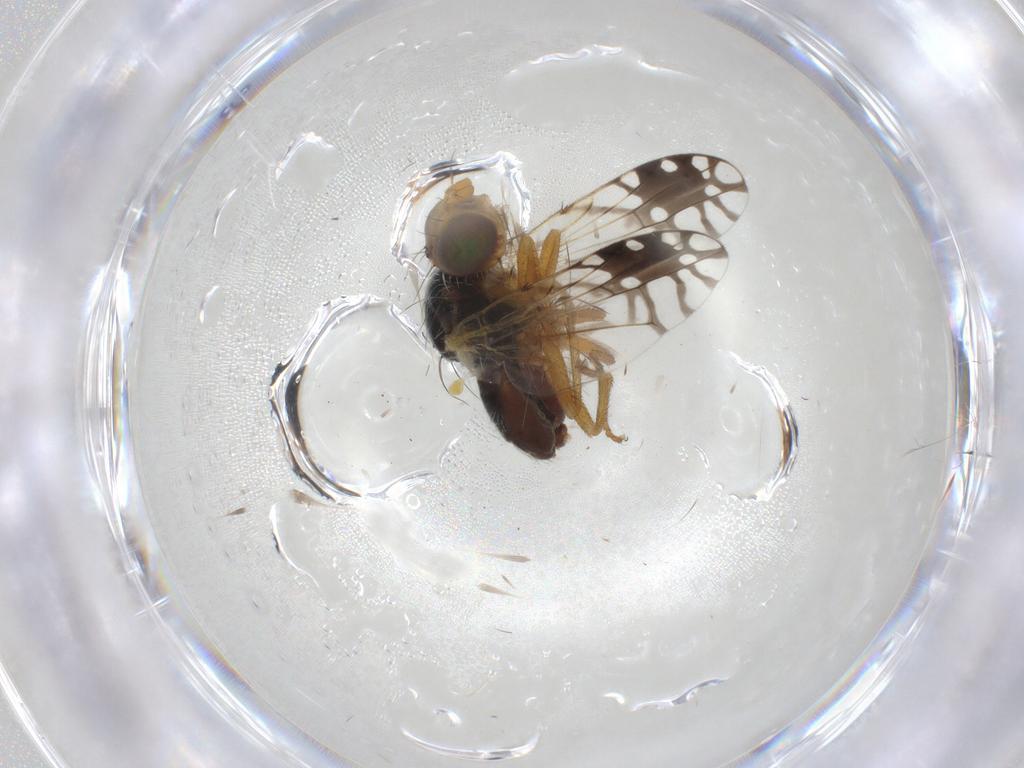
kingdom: Animalia
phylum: Arthropoda
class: Insecta
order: Diptera
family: Tephritidae
